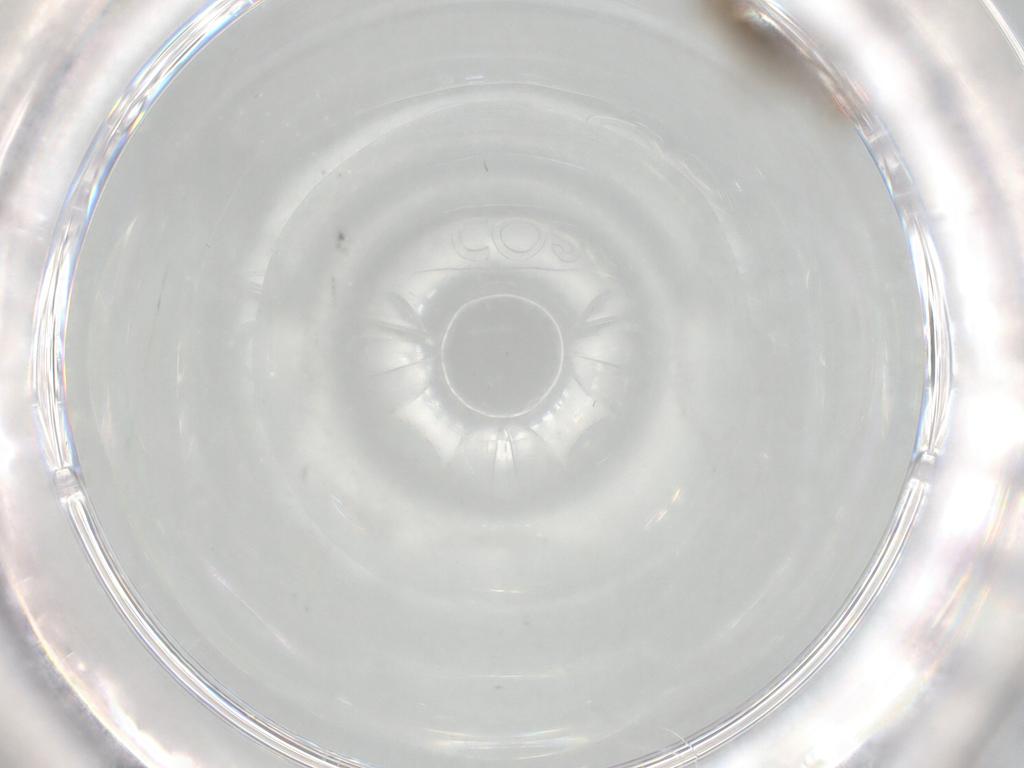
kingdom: Animalia
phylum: Arthropoda
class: Insecta
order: Diptera
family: Chironomidae
